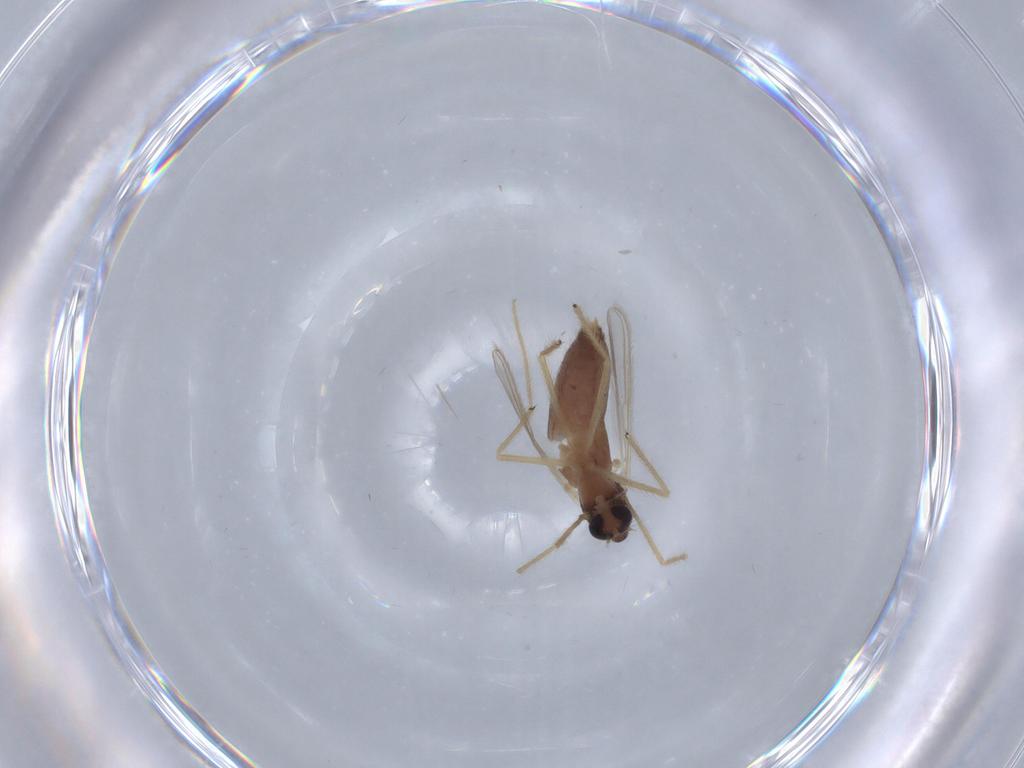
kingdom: Animalia
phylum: Arthropoda
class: Insecta
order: Diptera
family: Chironomidae
